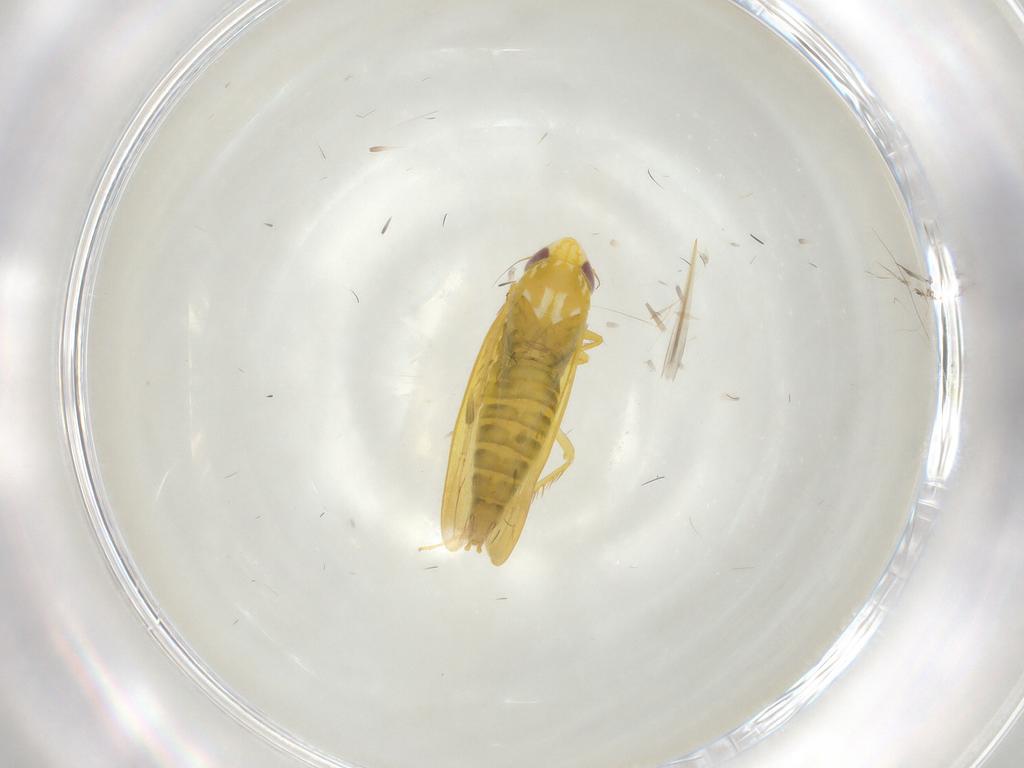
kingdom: Animalia
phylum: Arthropoda
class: Insecta
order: Hemiptera
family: Cicadellidae
